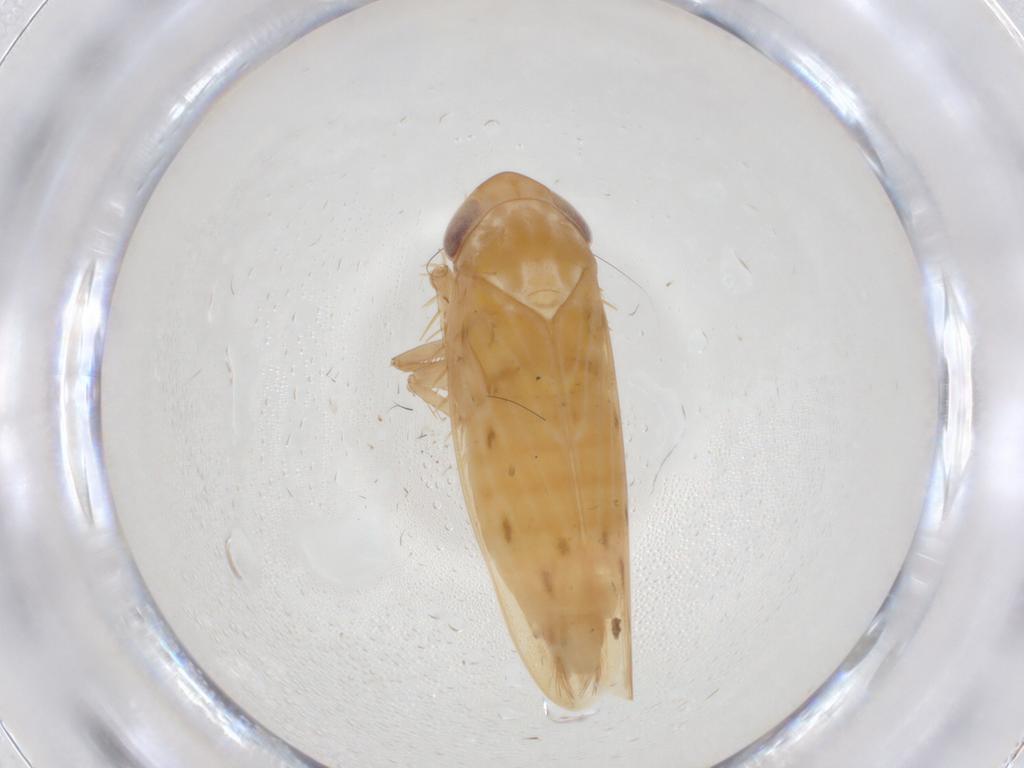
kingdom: Animalia
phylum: Arthropoda
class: Insecta
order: Hemiptera
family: Cicadellidae
